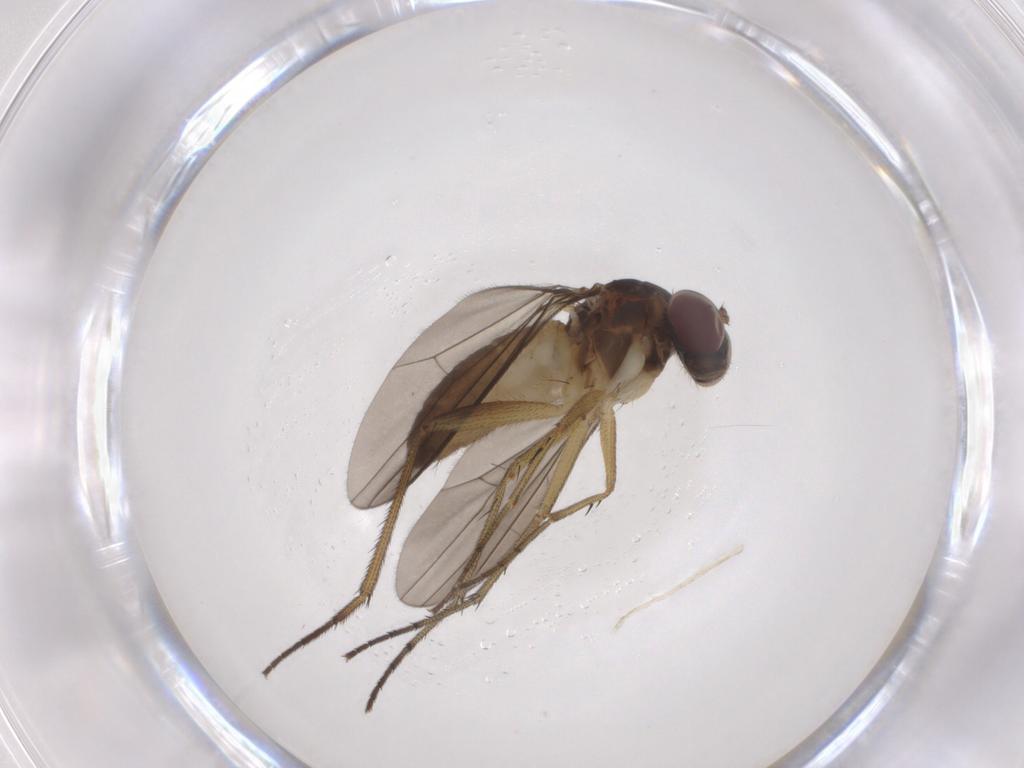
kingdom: Animalia
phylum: Arthropoda
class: Insecta
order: Diptera
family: Dolichopodidae
